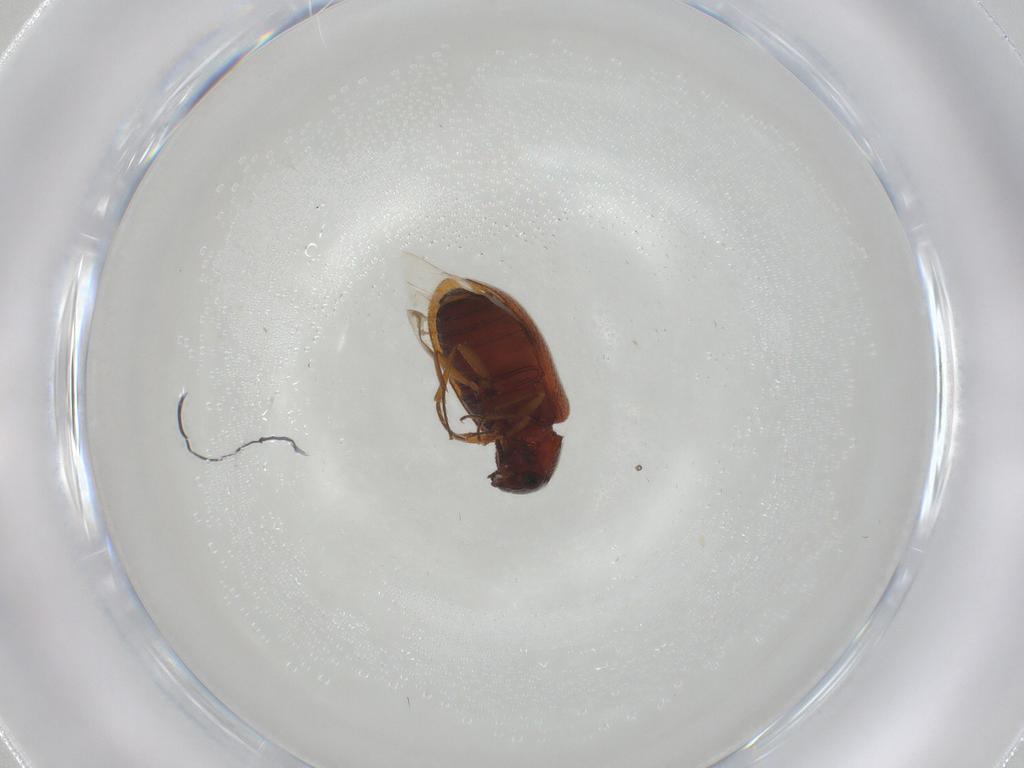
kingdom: Animalia
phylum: Arthropoda
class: Insecta
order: Coleoptera
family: Rhadalidae
